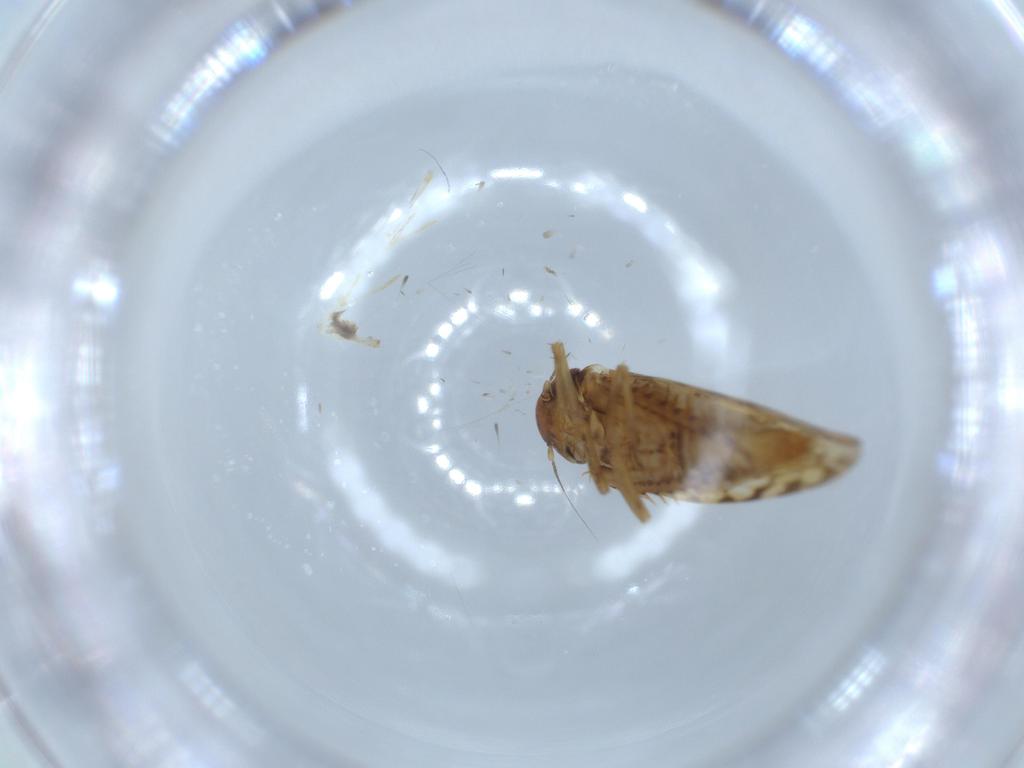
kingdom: Animalia
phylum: Arthropoda
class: Insecta
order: Hemiptera
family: Cicadellidae
